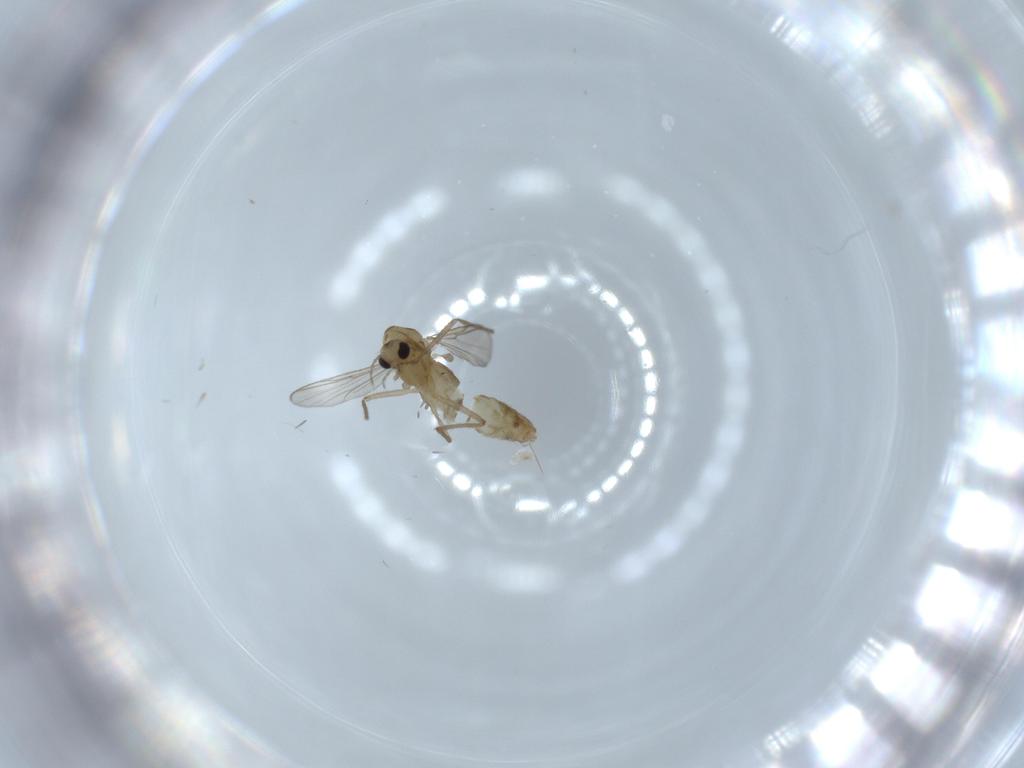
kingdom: Animalia
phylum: Arthropoda
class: Insecta
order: Diptera
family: Chironomidae
